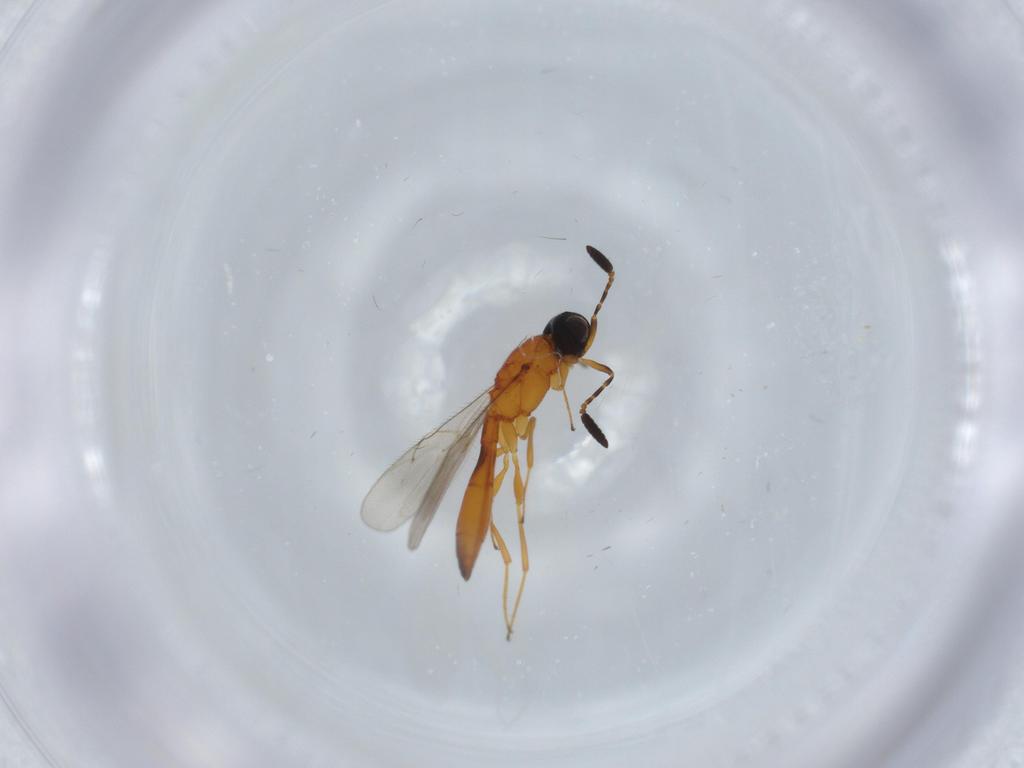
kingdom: Animalia
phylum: Arthropoda
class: Insecta
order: Hymenoptera
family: Scelionidae
